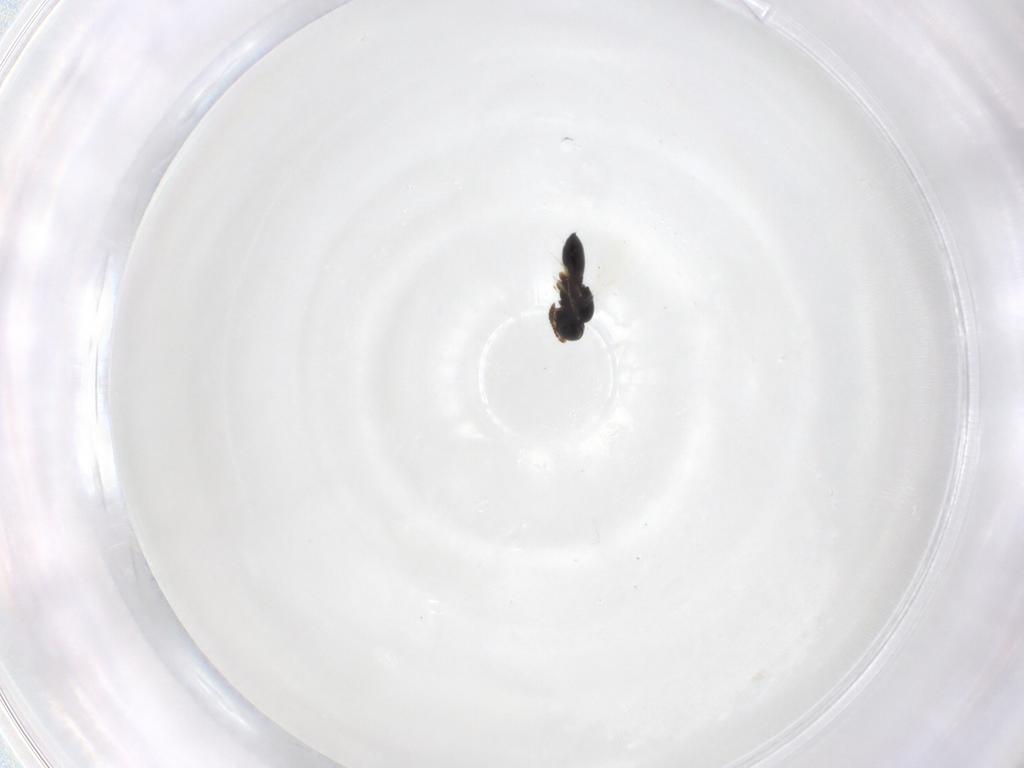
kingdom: Animalia
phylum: Arthropoda
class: Insecta
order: Hymenoptera
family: Scelionidae
